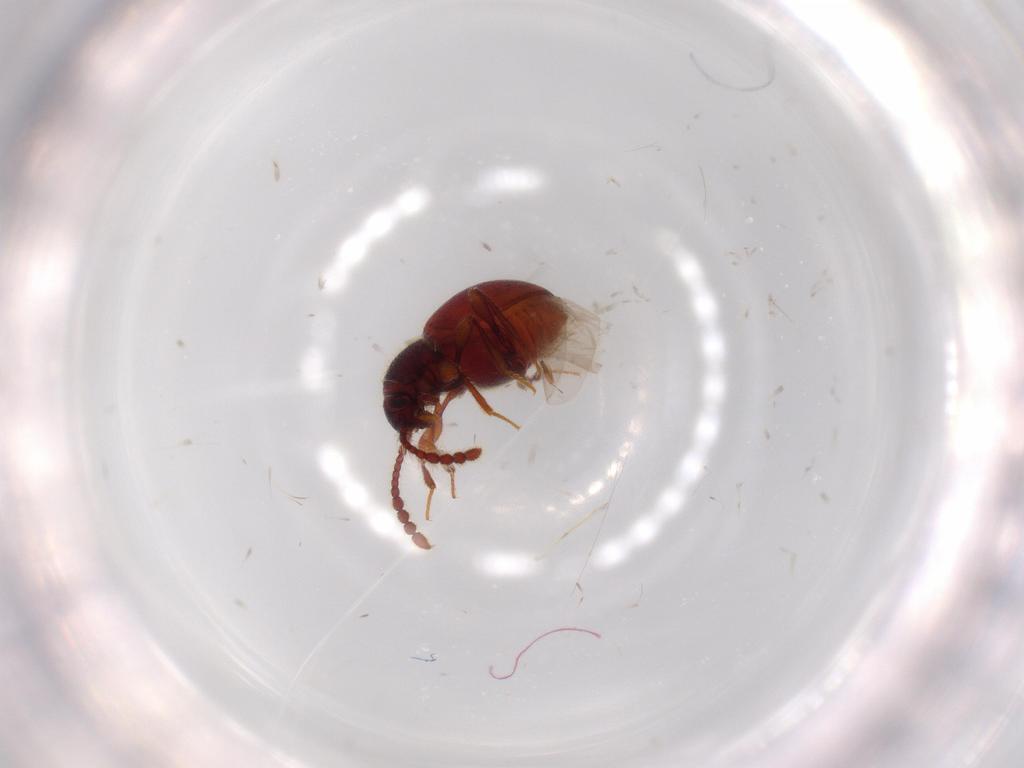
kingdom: Animalia
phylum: Arthropoda
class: Insecta
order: Coleoptera
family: Staphylinidae
